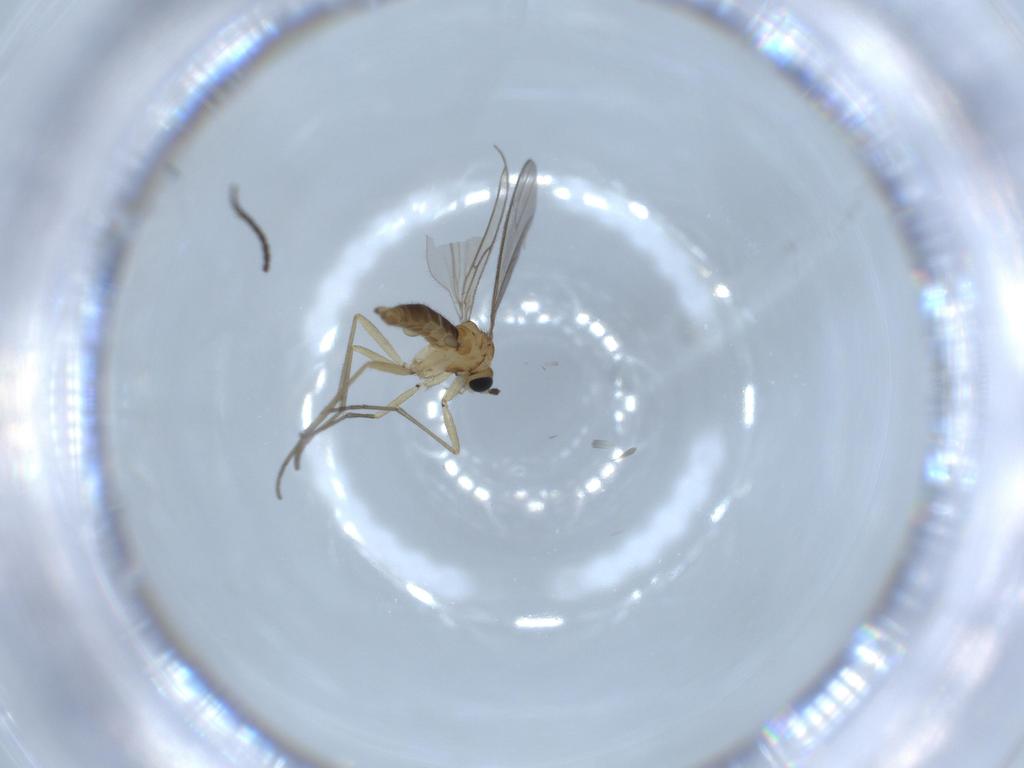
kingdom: Animalia
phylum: Arthropoda
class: Insecta
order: Diptera
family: Sciaridae
